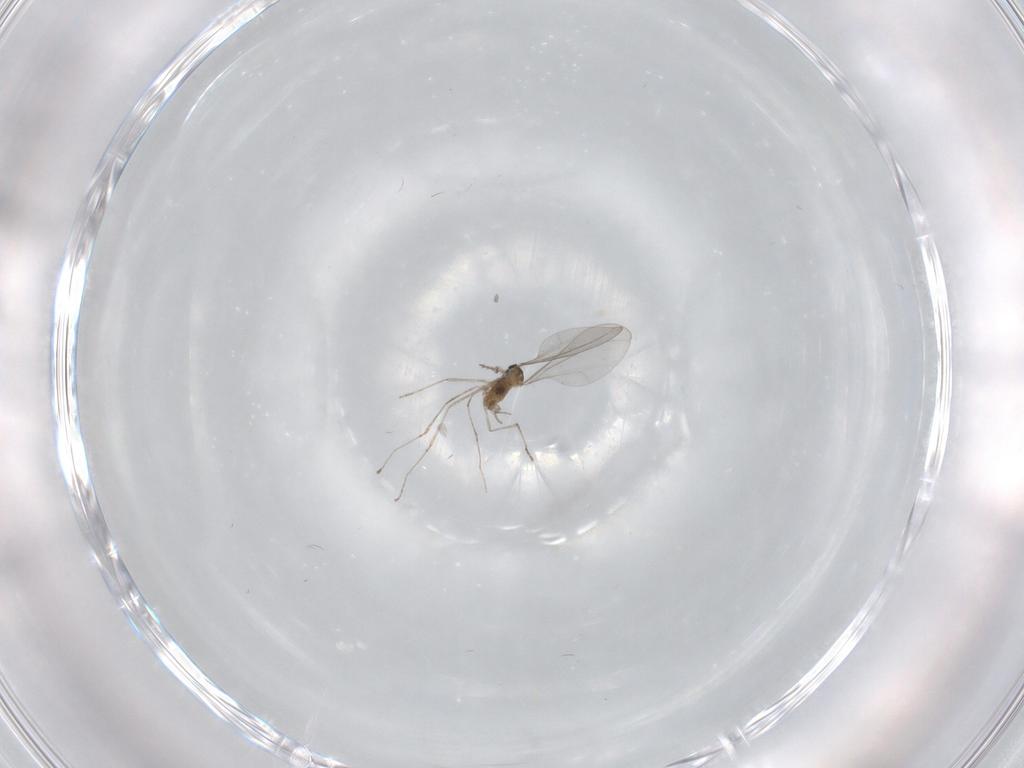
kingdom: Animalia
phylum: Arthropoda
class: Insecta
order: Diptera
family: Cecidomyiidae
